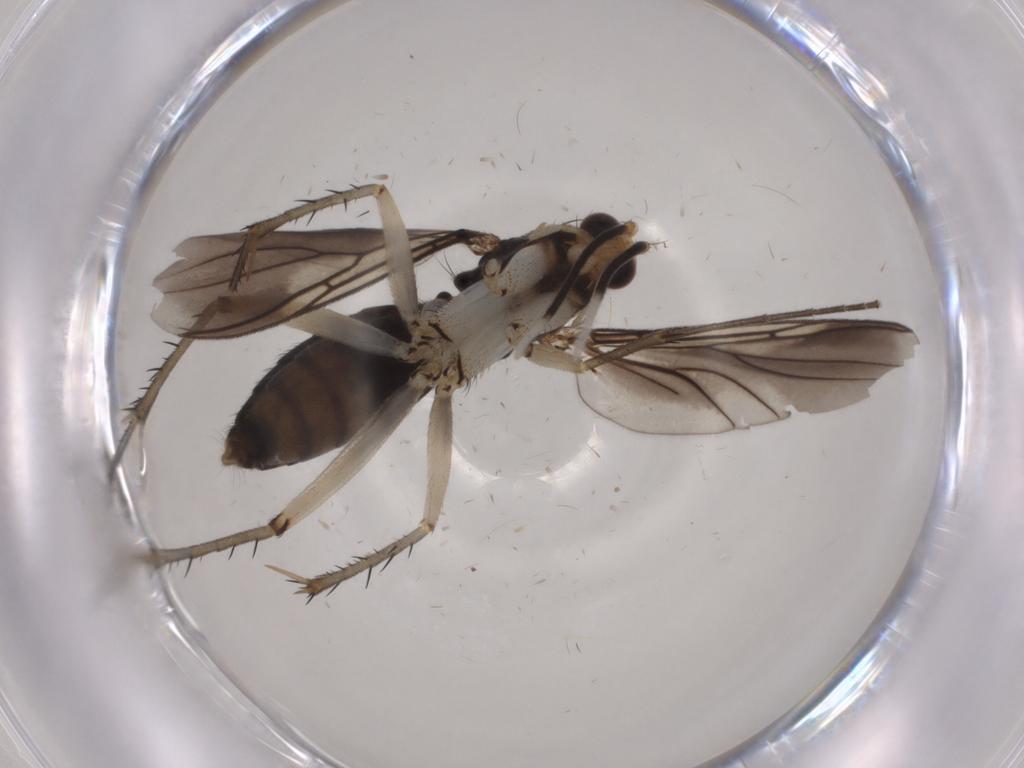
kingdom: Animalia
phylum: Arthropoda
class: Insecta
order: Diptera
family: Mycetophilidae
